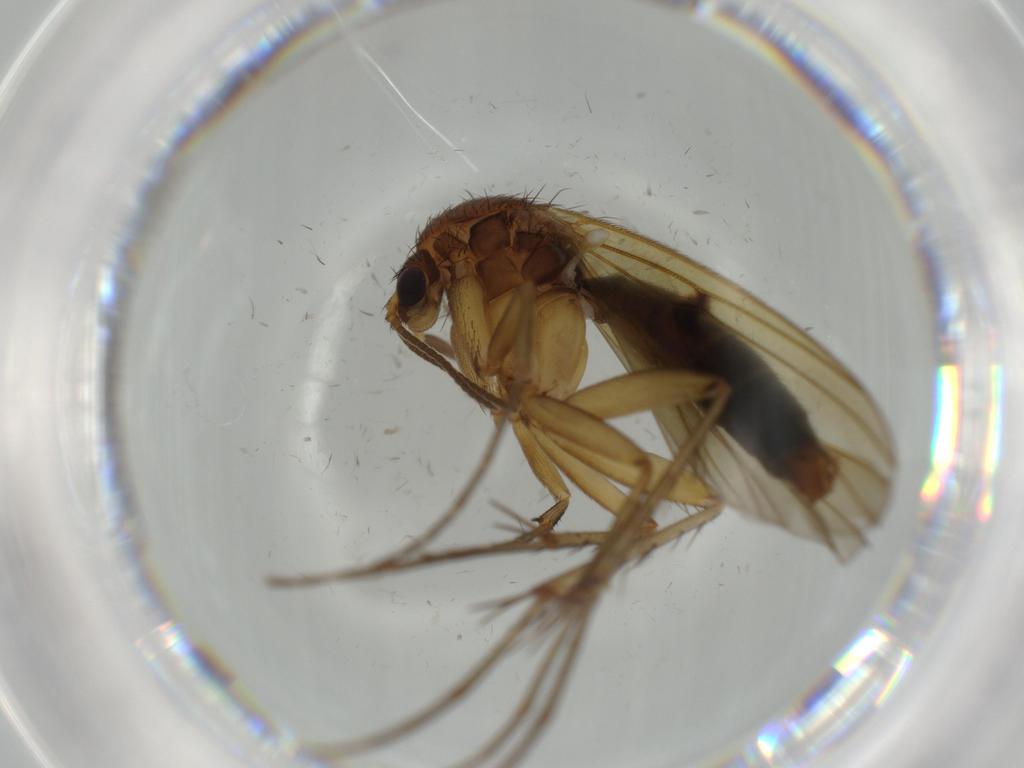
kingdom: Animalia
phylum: Arthropoda
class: Insecta
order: Diptera
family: Sciaridae
